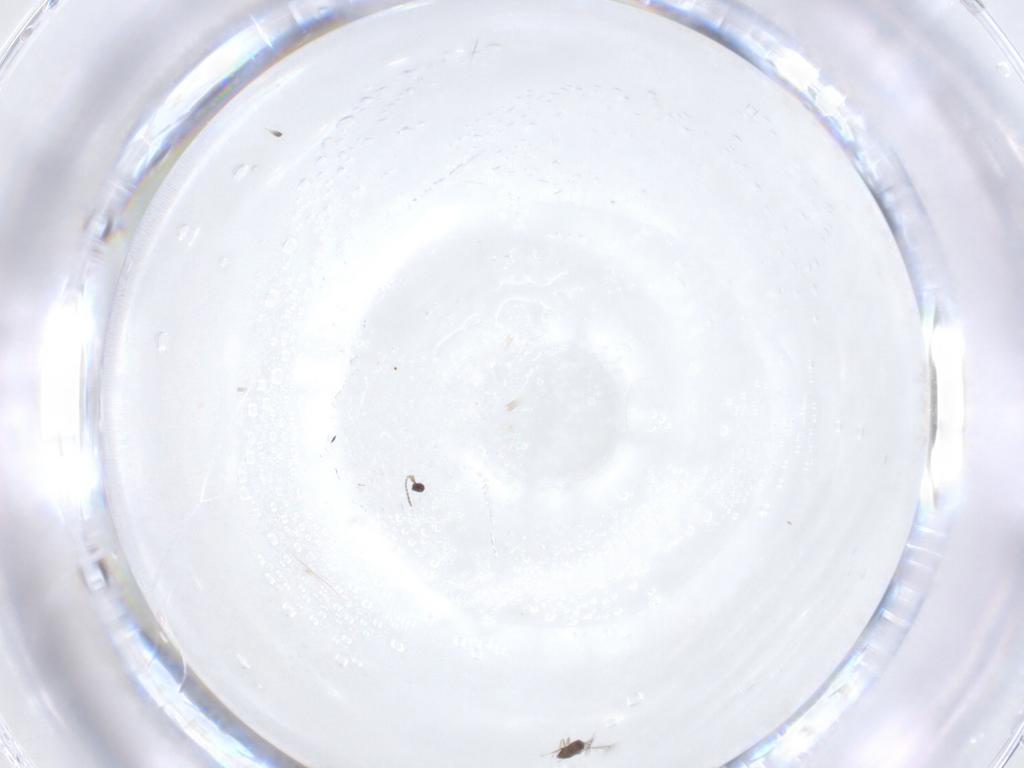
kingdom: Animalia
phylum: Arthropoda
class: Insecta
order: Hymenoptera
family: Mymaridae
